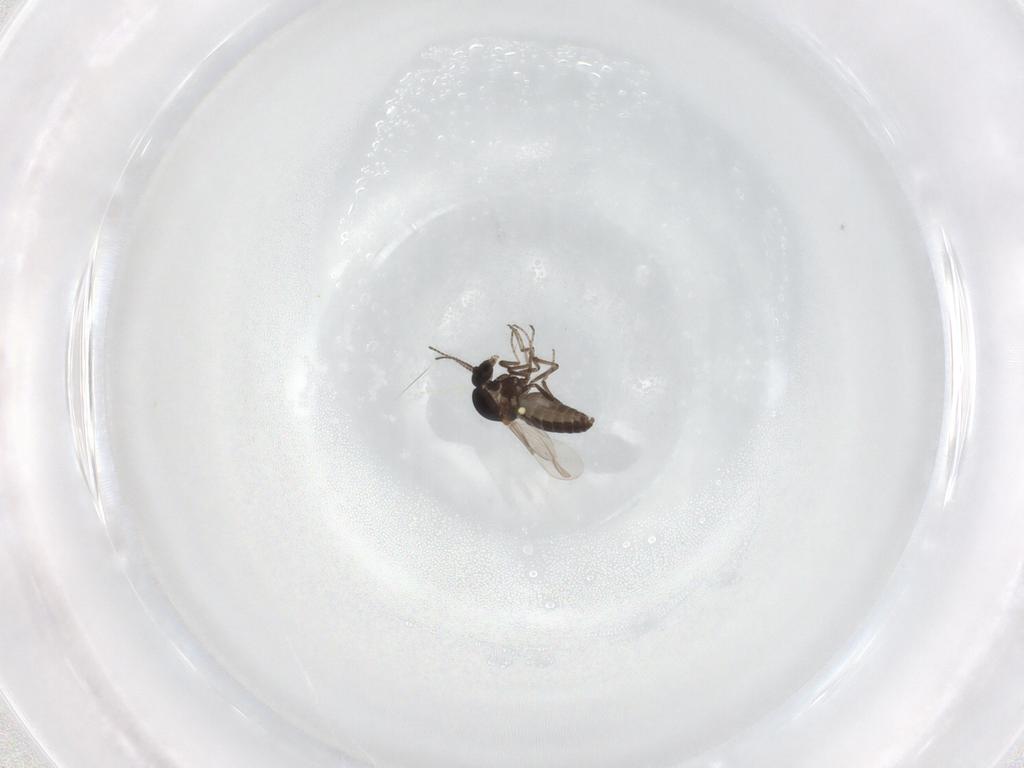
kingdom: Animalia
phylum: Arthropoda
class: Insecta
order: Diptera
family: Ceratopogonidae
